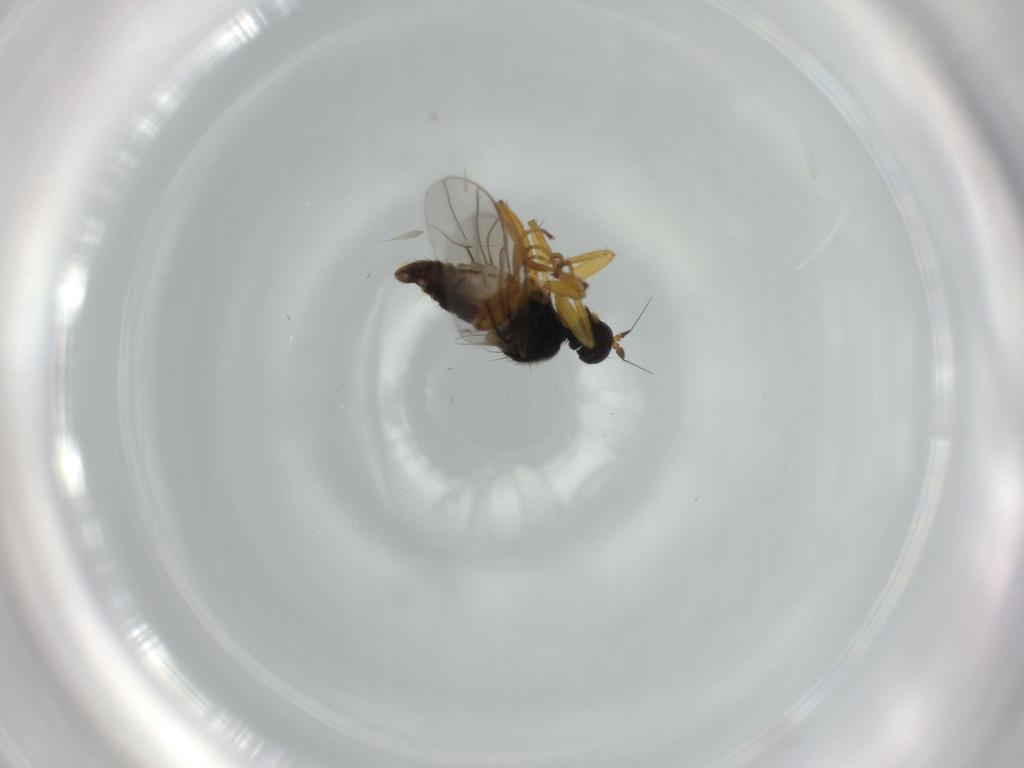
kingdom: Animalia
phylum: Arthropoda
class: Insecta
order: Diptera
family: Hybotidae
